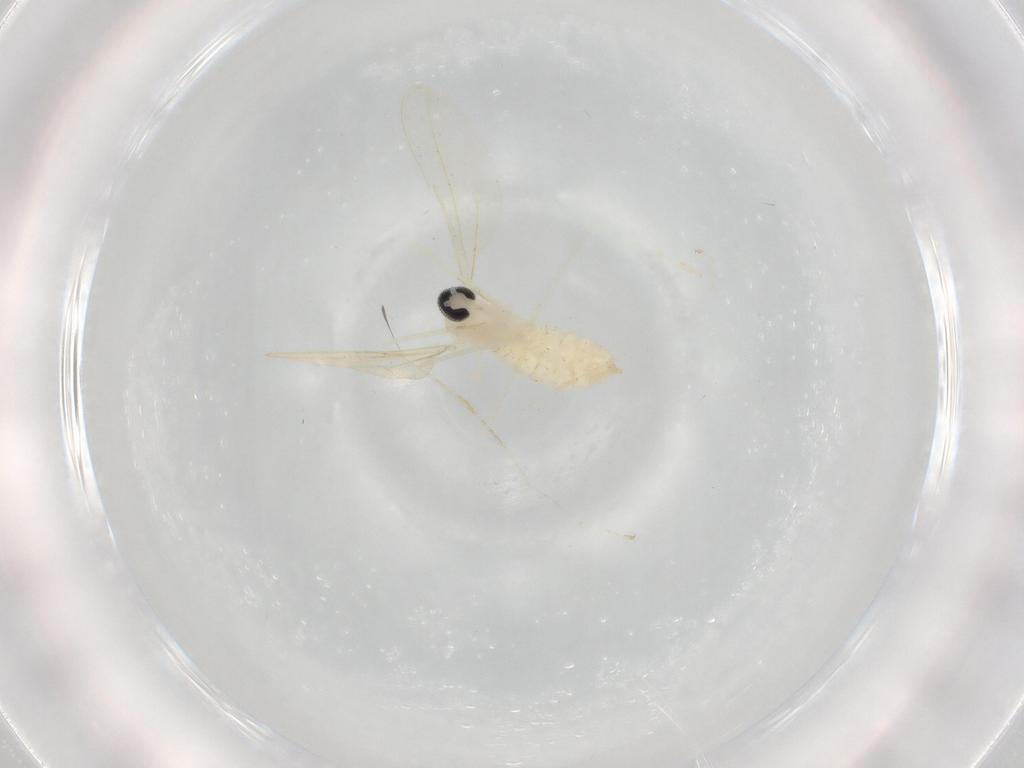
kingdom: Animalia
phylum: Arthropoda
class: Insecta
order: Diptera
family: Cecidomyiidae
